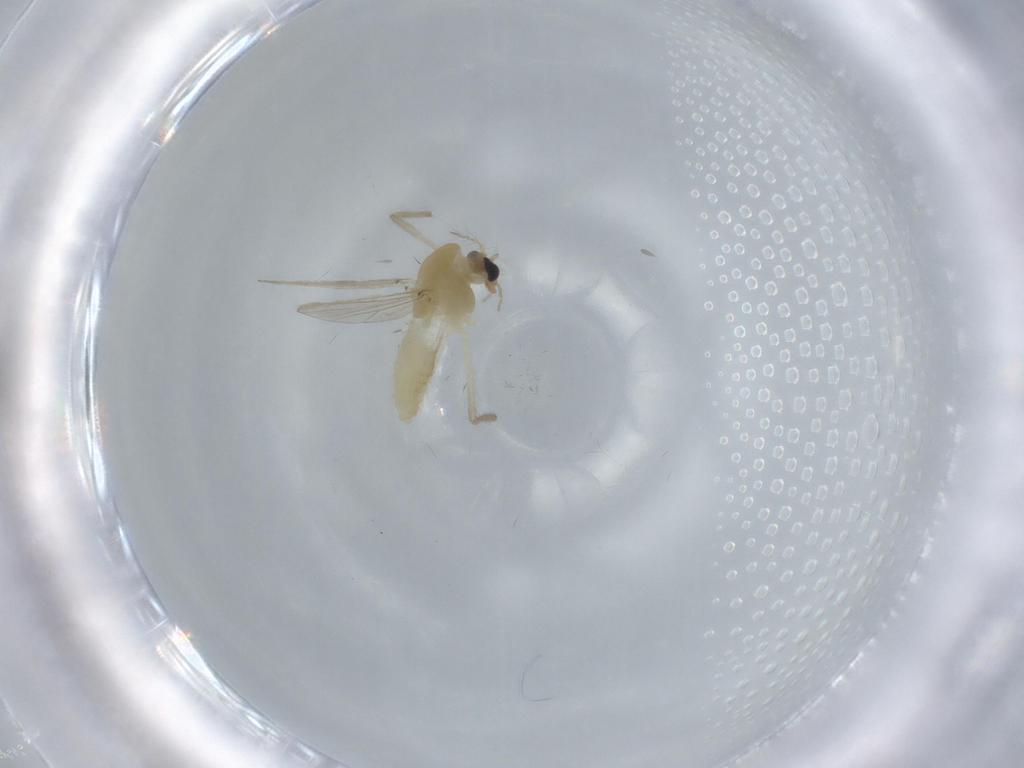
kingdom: Animalia
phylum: Arthropoda
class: Insecta
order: Diptera
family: Chironomidae
